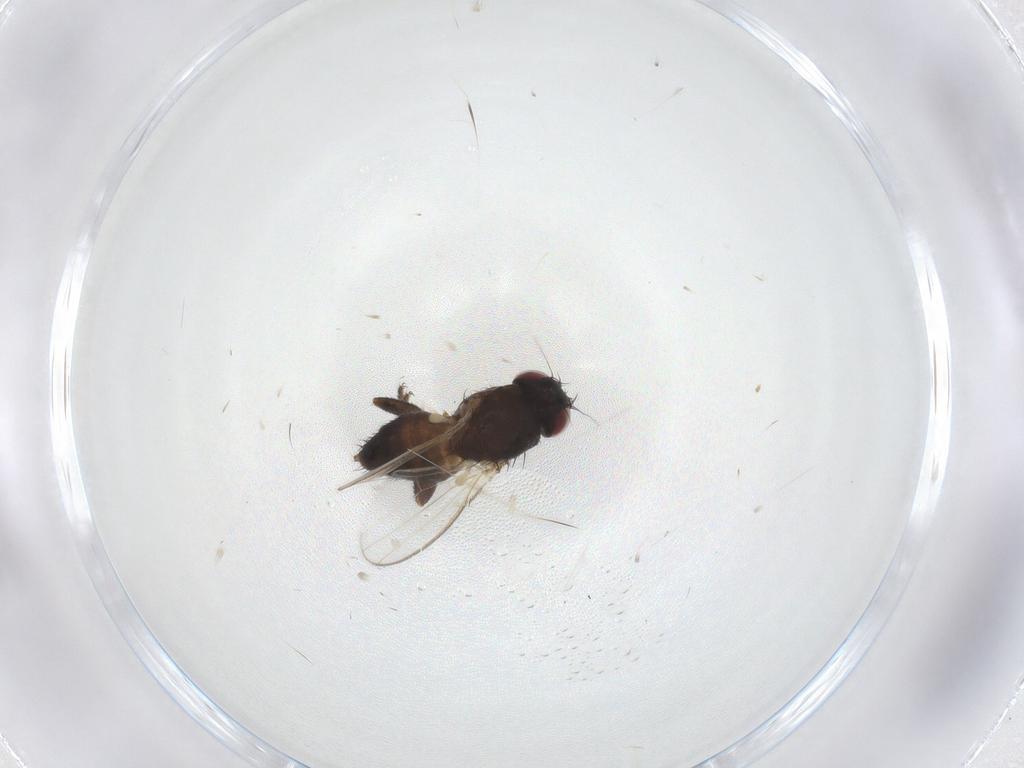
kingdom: Animalia
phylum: Arthropoda
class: Insecta
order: Diptera
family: Milichiidae
